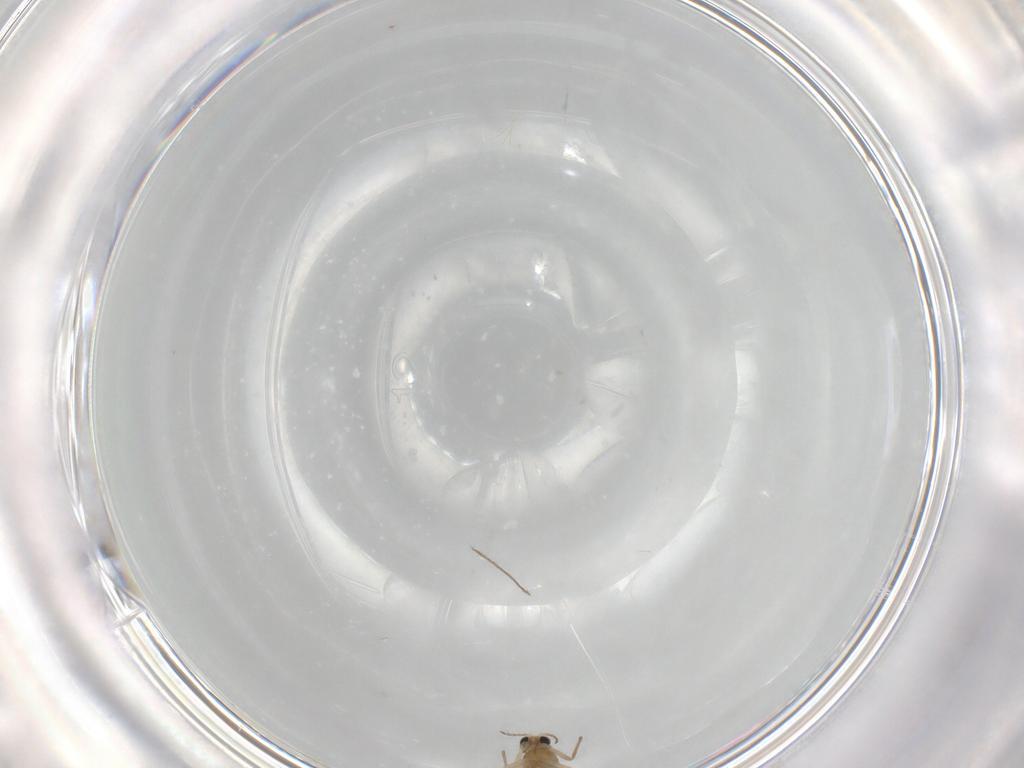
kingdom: Animalia
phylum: Arthropoda
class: Insecta
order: Diptera
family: Chironomidae
